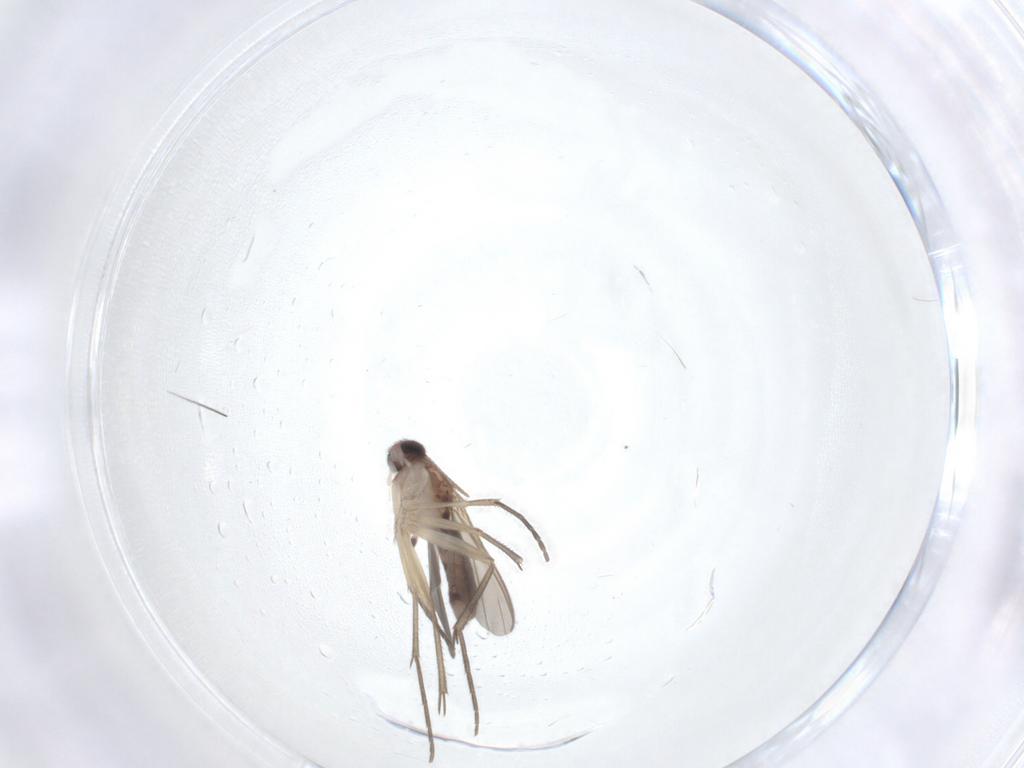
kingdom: Animalia
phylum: Arthropoda
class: Insecta
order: Diptera
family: Mycetophilidae
